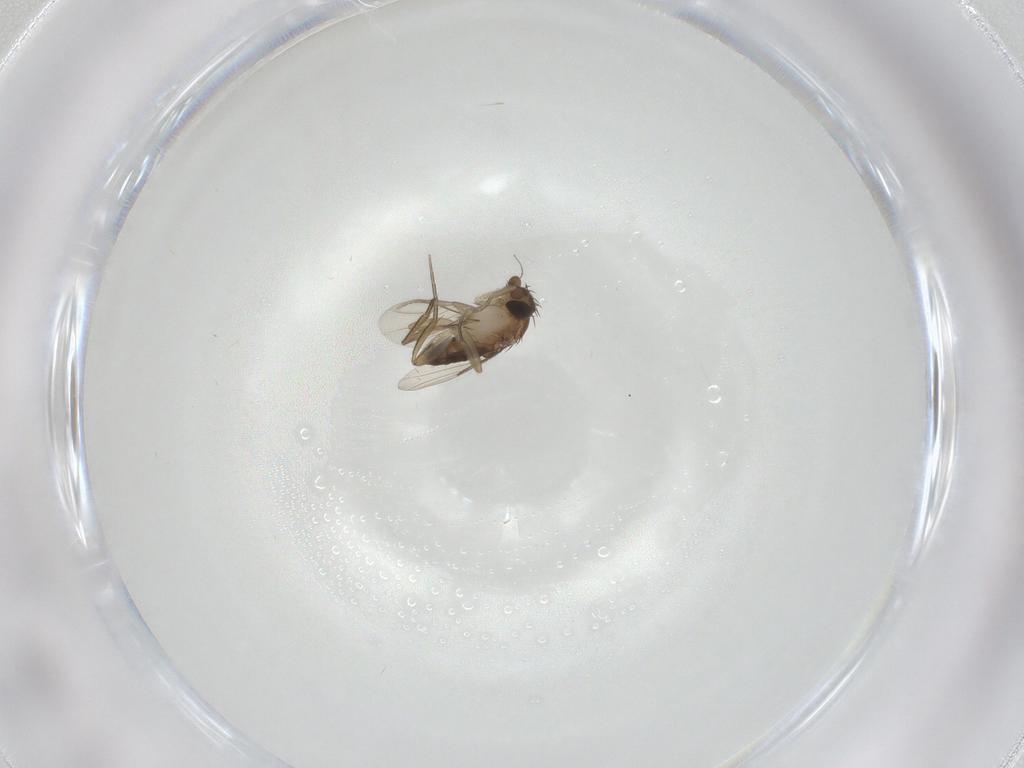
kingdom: Animalia
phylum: Arthropoda
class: Insecta
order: Diptera
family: Phoridae
